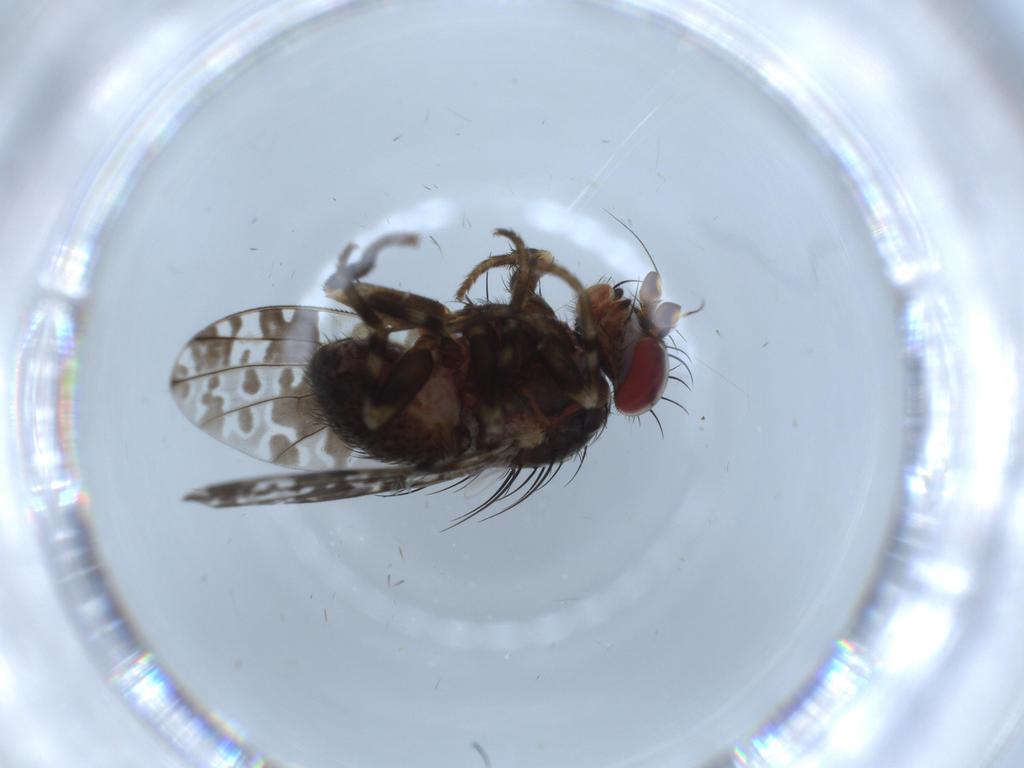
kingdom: Animalia
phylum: Arthropoda
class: Insecta
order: Diptera
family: Odiniidae
